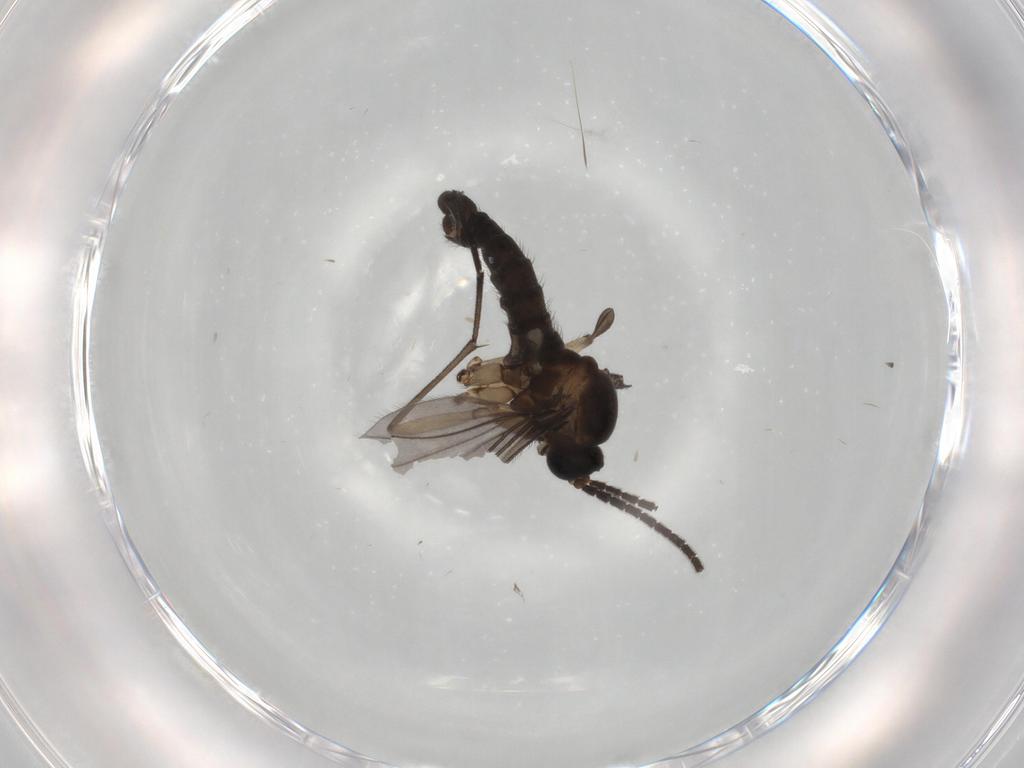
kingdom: Animalia
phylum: Arthropoda
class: Insecta
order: Diptera
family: Sciaridae
